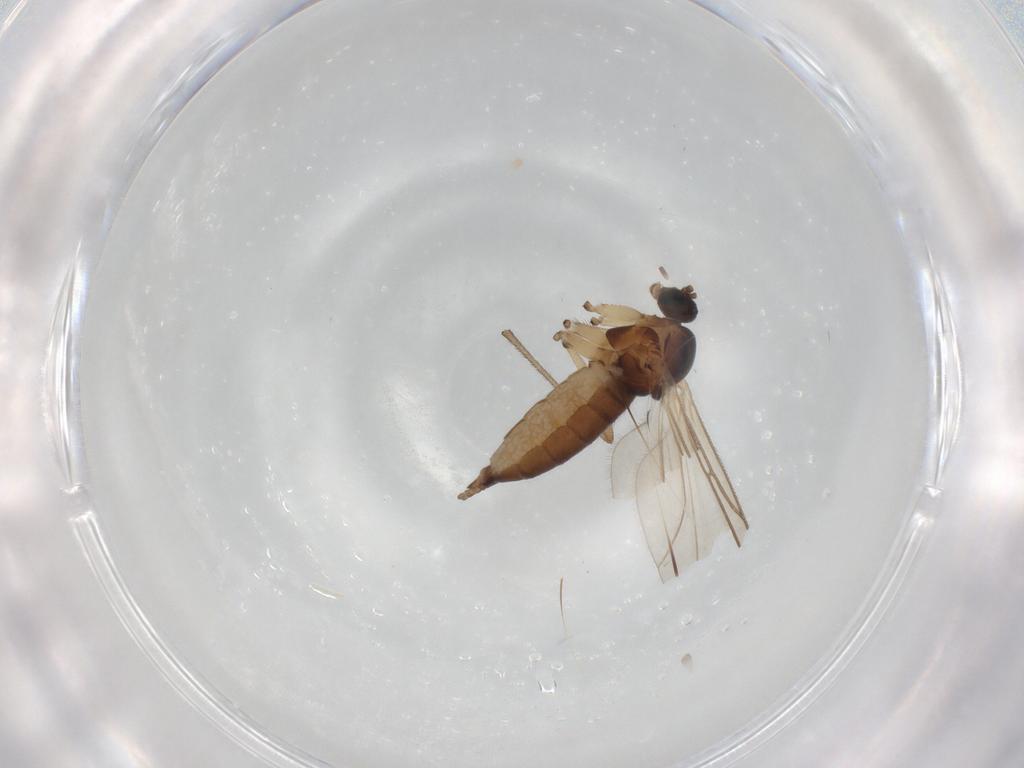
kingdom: Animalia
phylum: Arthropoda
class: Insecta
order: Diptera
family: Sciaridae
